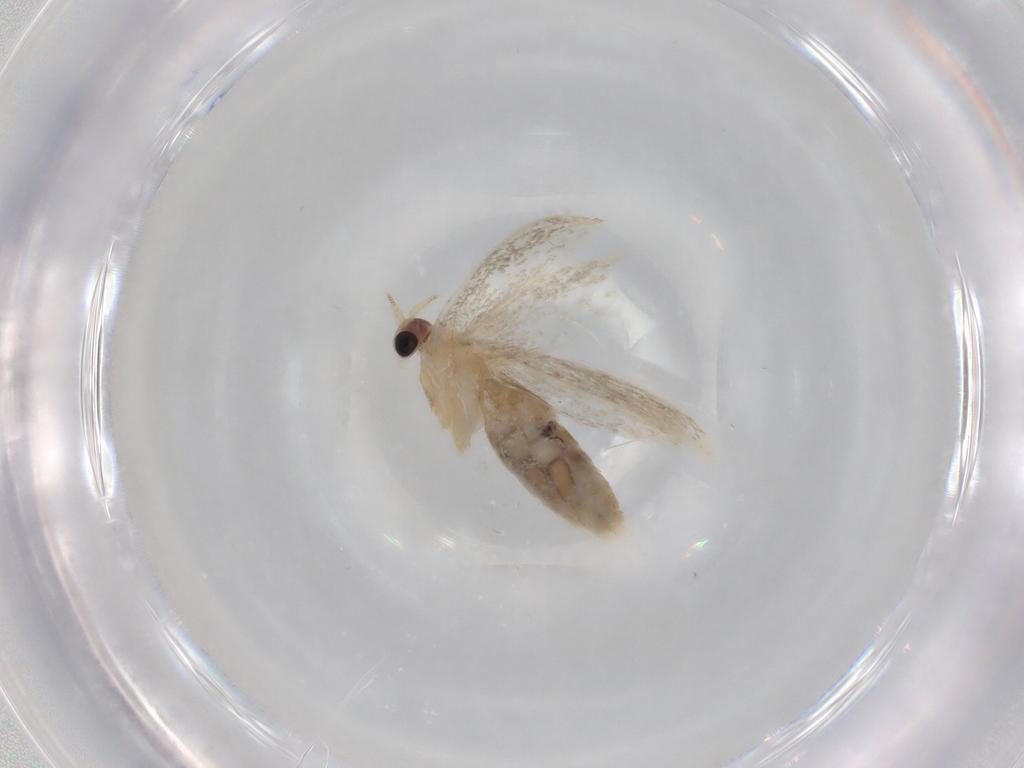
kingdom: Animalia
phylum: Arthropoda
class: Insecta
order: Lepidoptera
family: Nepticulidae
